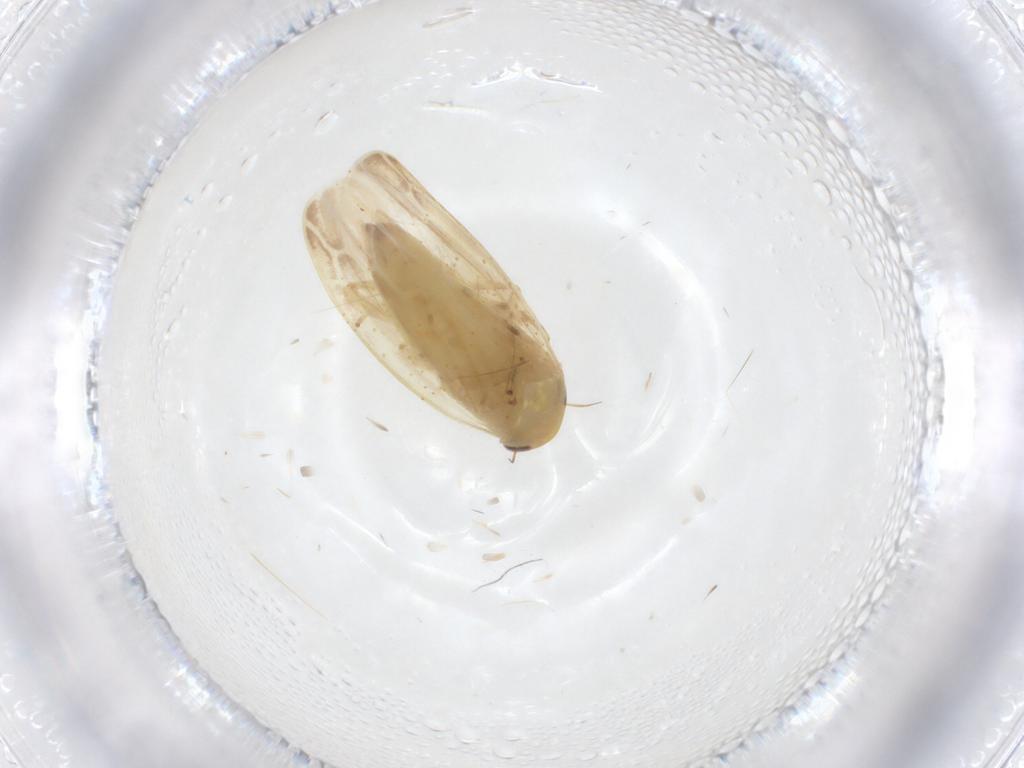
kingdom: Animalia
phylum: Arthropoda
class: Insecta
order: Hemiptera
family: Cicadellidae
